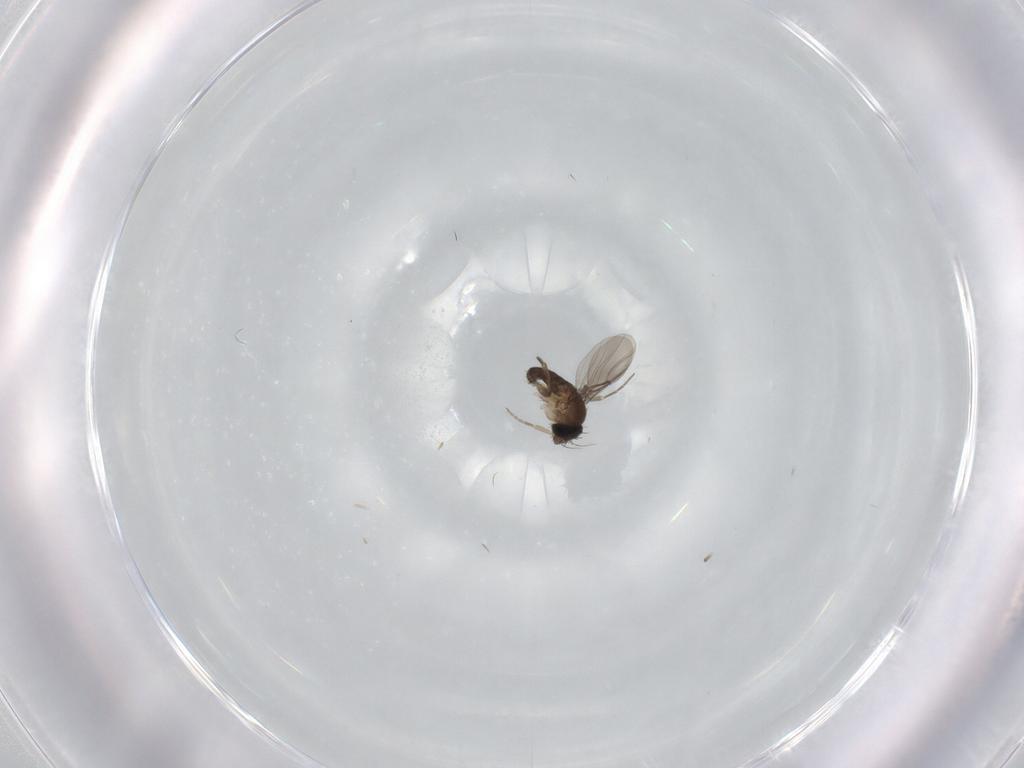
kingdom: Animalia
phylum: Arthropoda
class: Insecta
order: Diptera
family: Phoridae
